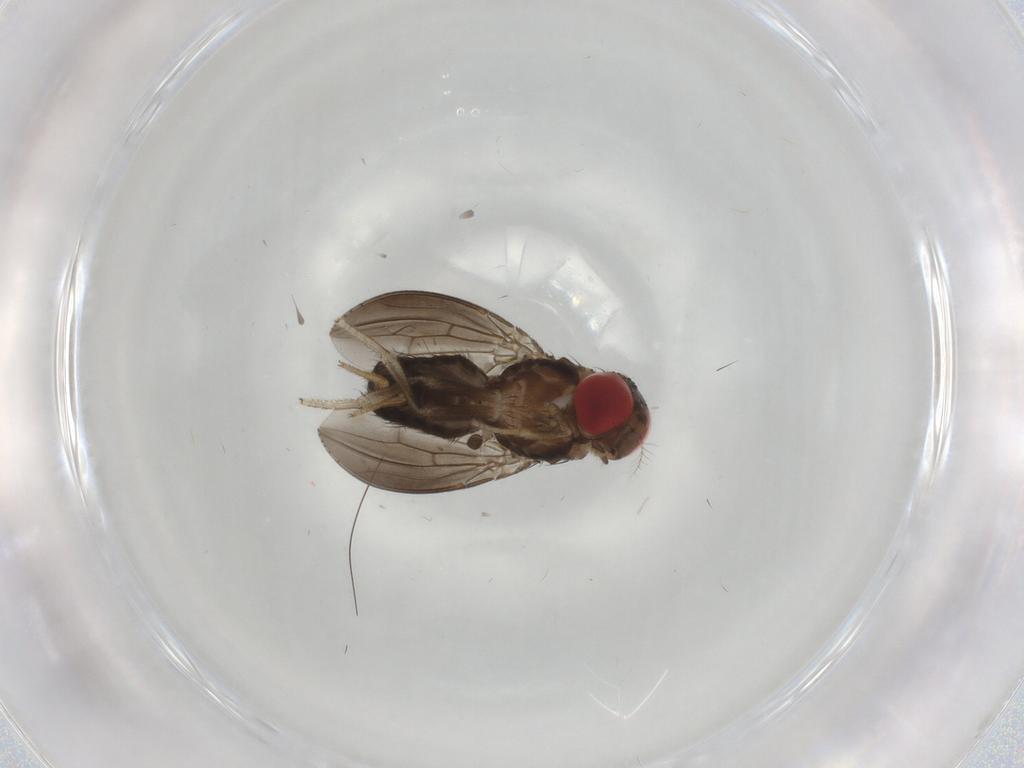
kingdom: Animalia
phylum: Arthropoda
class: Insecta
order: Diptera
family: Drosophilidae
